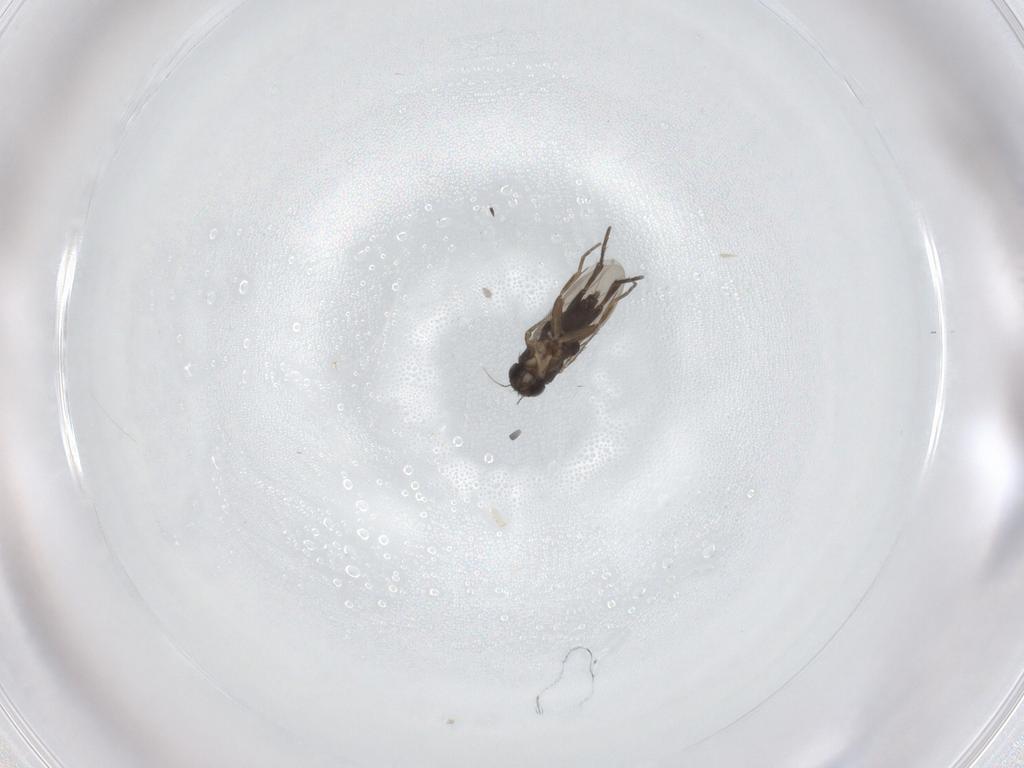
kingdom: Animalia
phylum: Arthropoda
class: Insecta
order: Diptera
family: Phoridae
